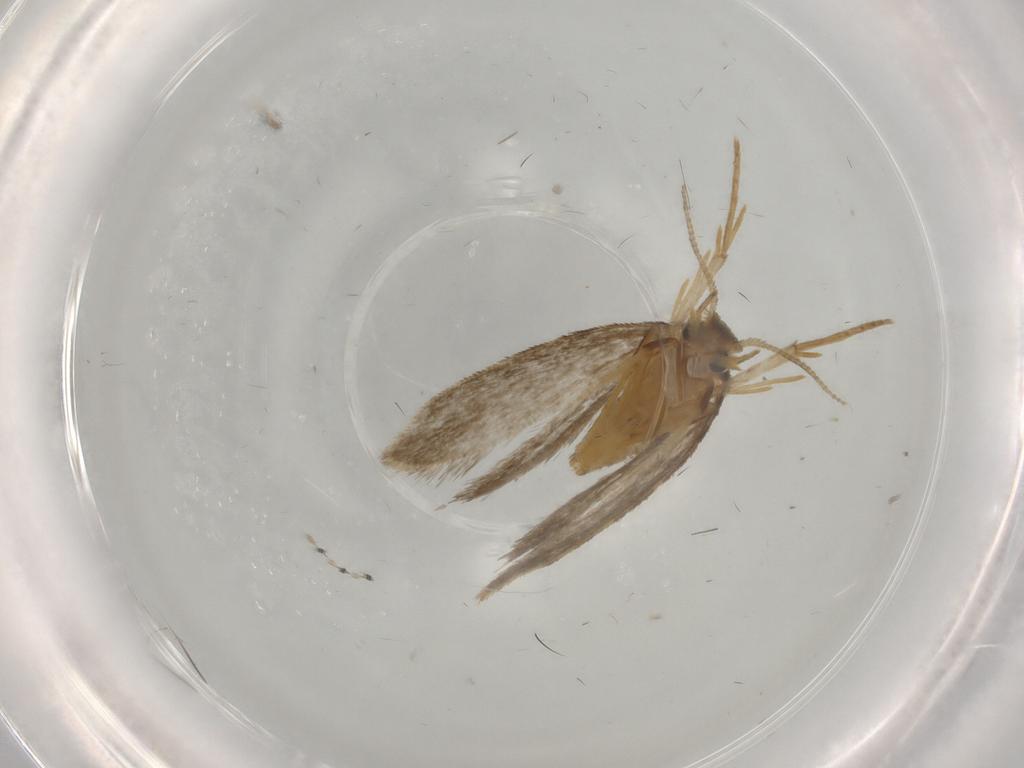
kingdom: Animalia
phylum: Arthropoda
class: Insecta
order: Lepidoptera
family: Psychidae
